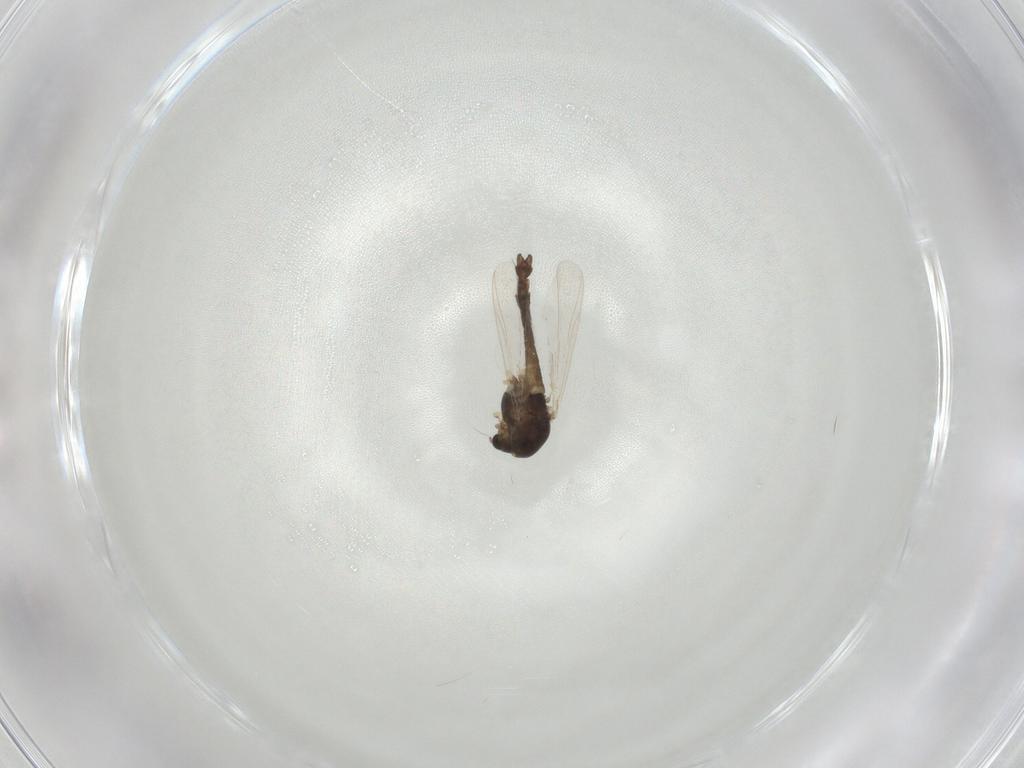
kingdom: Animalia
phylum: Arthropoda
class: Insecta
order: Diptera
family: Chironomidae
